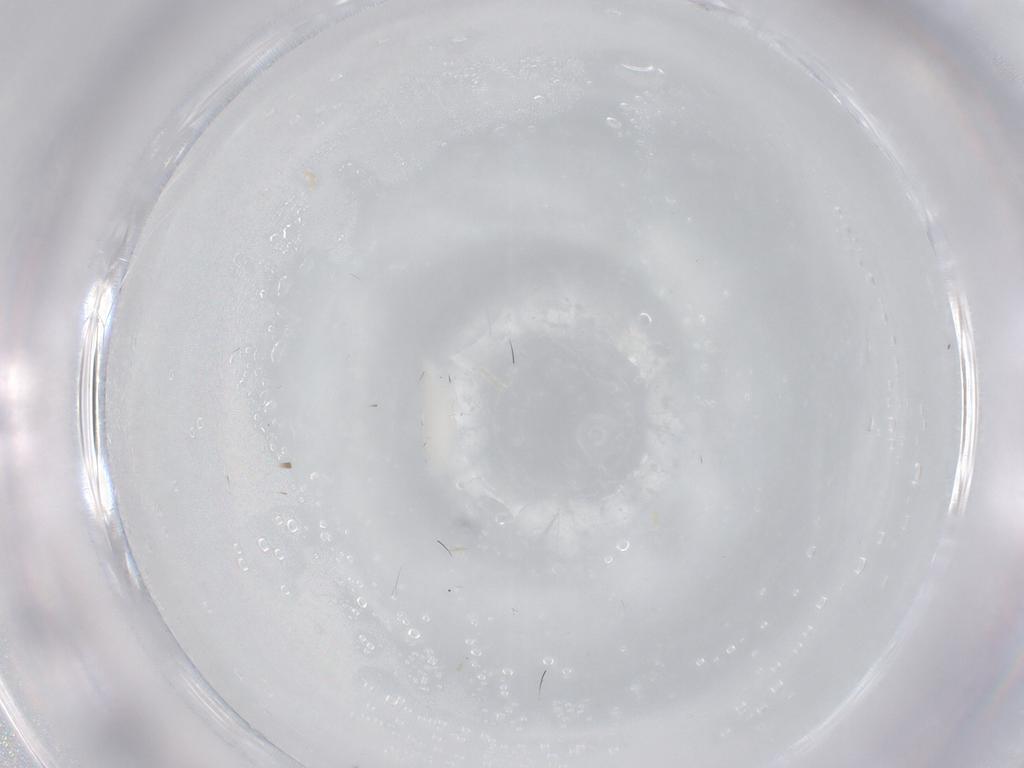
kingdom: Animalia
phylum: Arthropoda
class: Insecta
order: Diptera
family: Stratiomyidae
